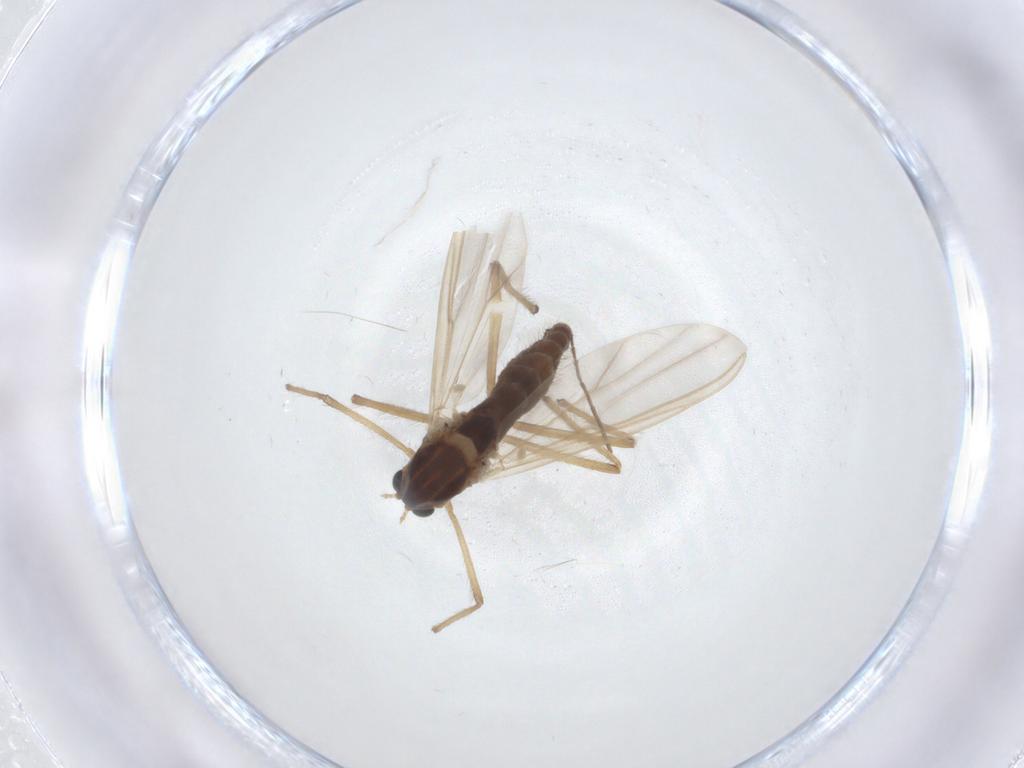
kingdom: Animalia
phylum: Arthropoda
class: Insecta
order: Diptera
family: Chironomidae
